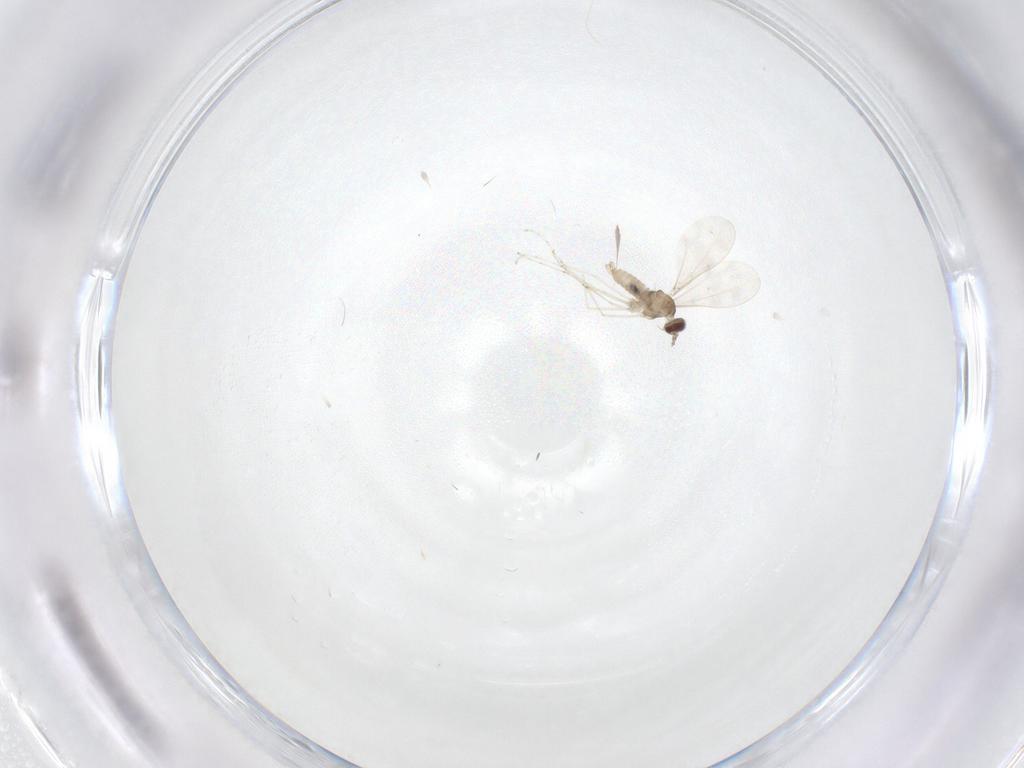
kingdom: Animalia
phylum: Arthropoda
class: Insecta
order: Diptera
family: Cecidomyiidae
